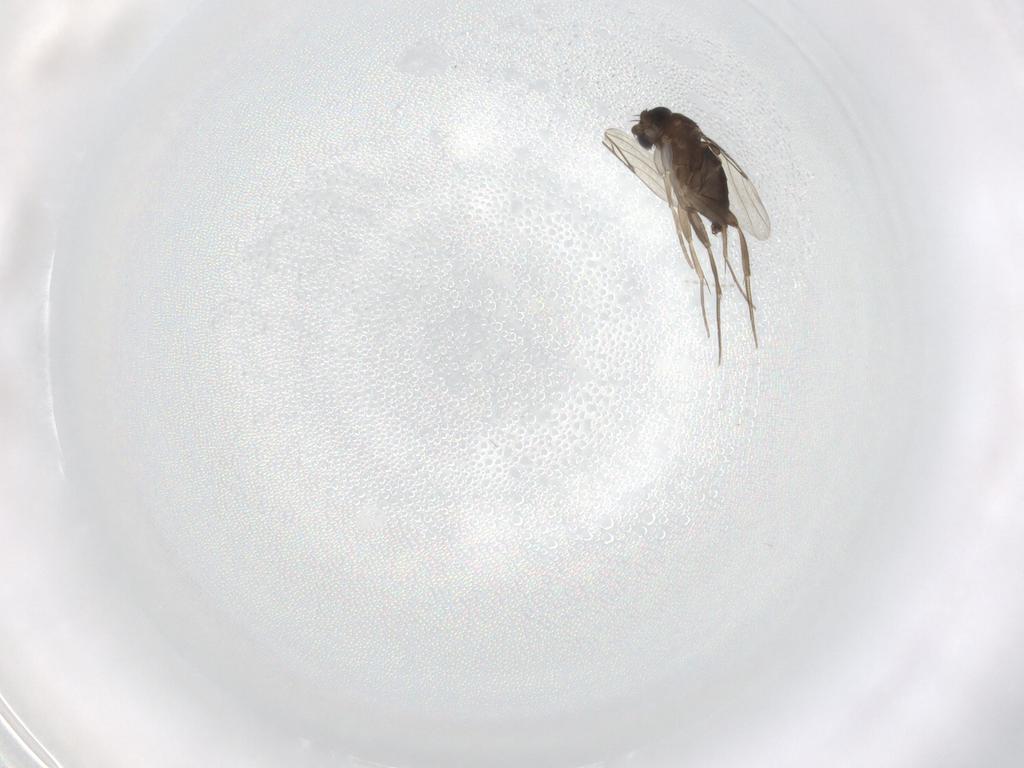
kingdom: Animalia
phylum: Arthropoda
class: Insecta
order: Diptera
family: Phoridae
